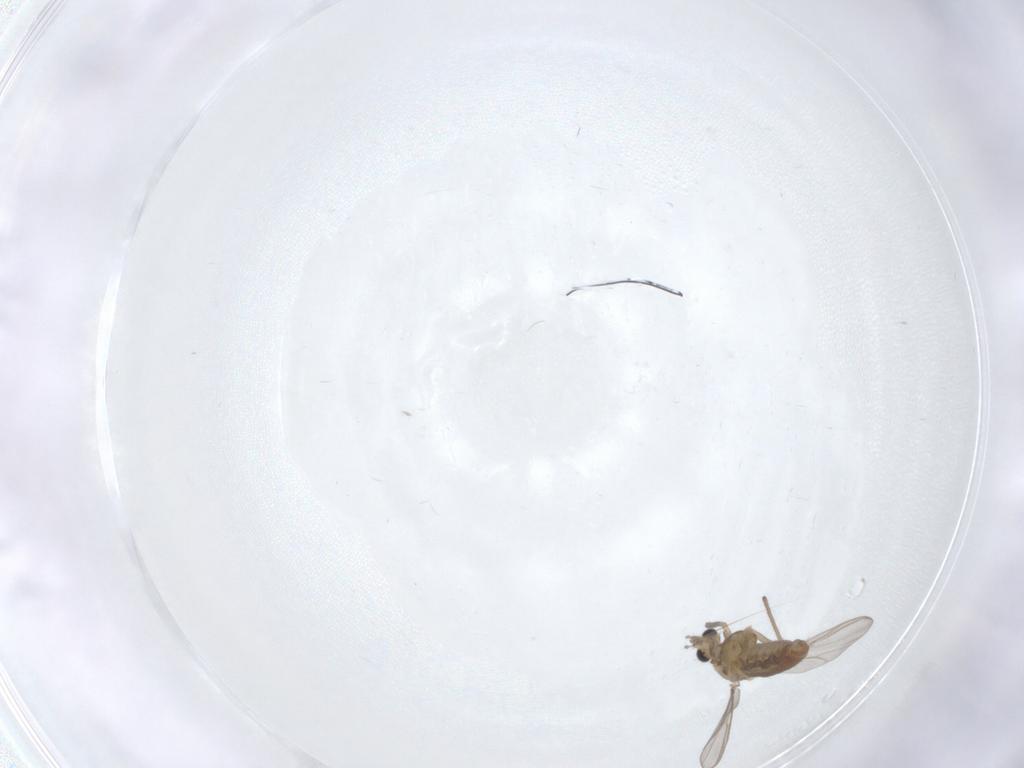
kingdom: Animalia
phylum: Arthropoda
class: Insecta
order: Diptera
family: Chironomidae
